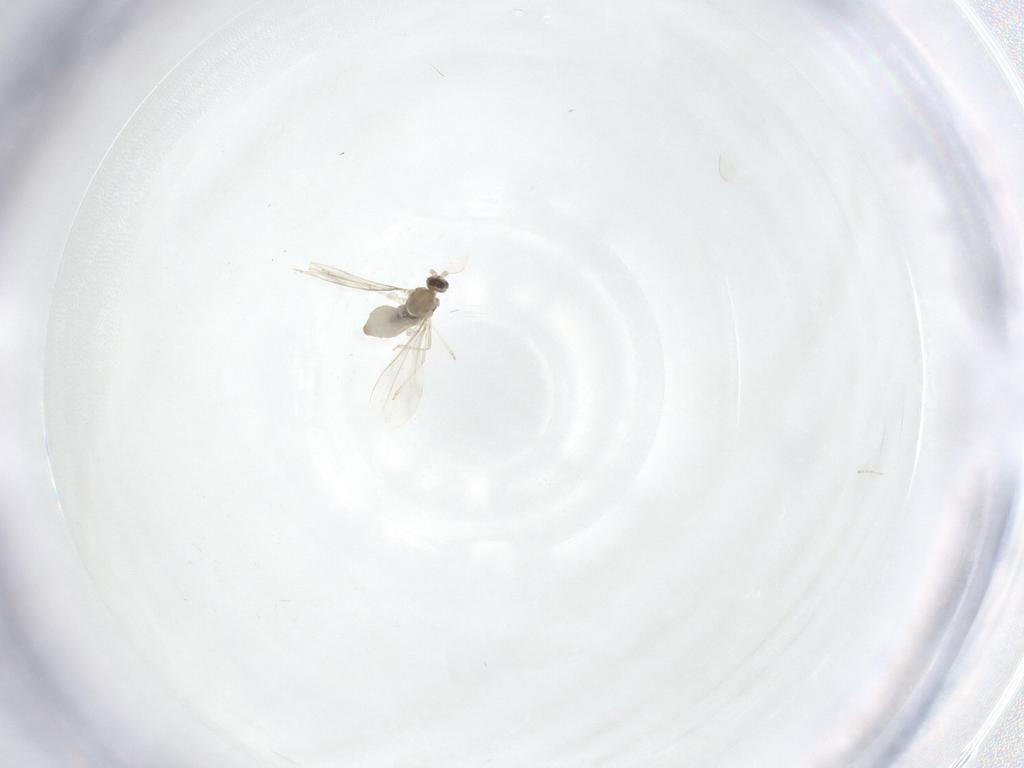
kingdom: Animalia
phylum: Arthropoda
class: Insecta
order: Diptera
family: Cecidomyiidae
